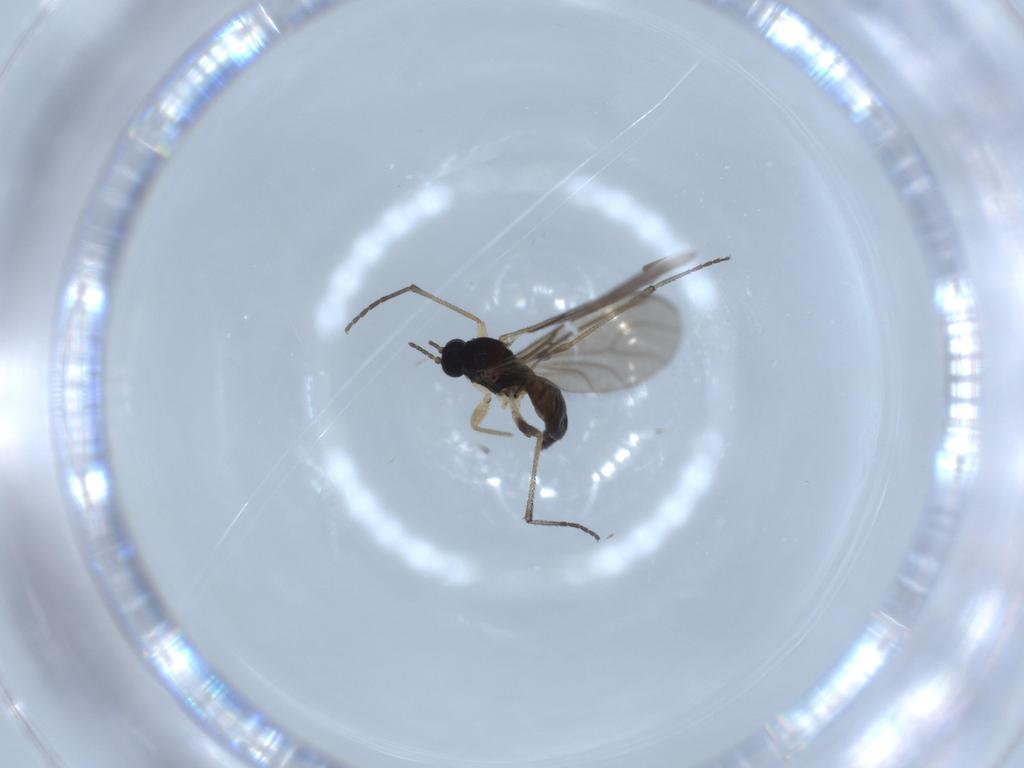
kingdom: Animalia
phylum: Arthropoda
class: Insecta
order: Diptera
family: Sciaridae
